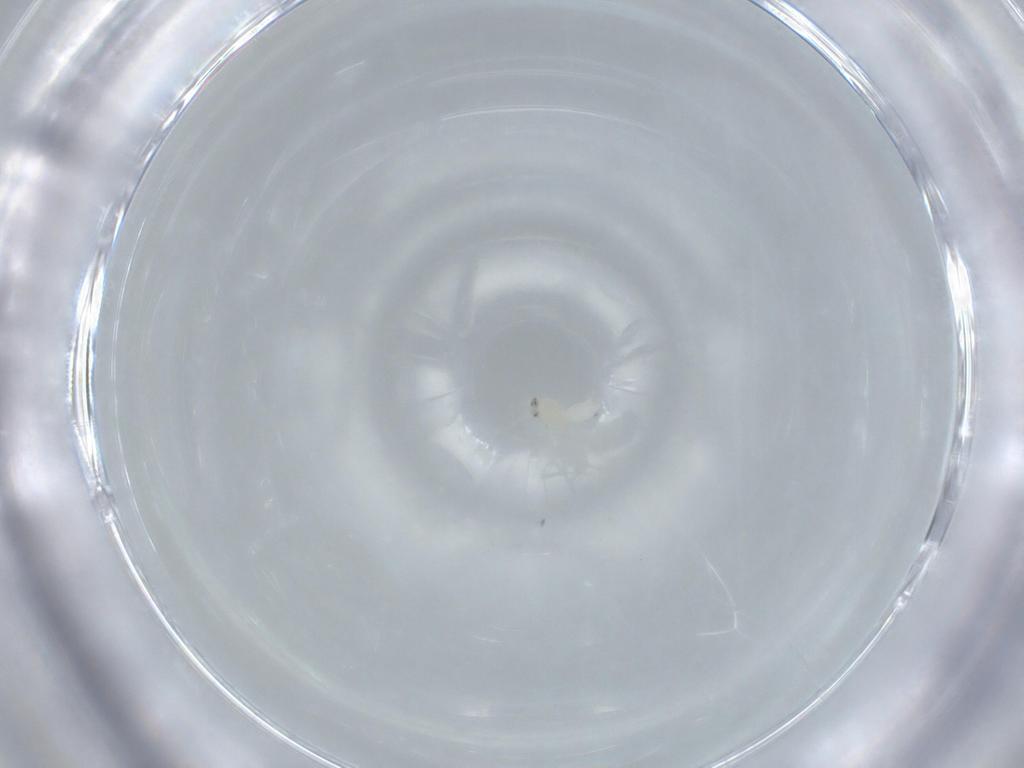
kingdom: Animalia
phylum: Arthropoda
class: Insecta
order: Hemiptera
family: Aleyrodidae
